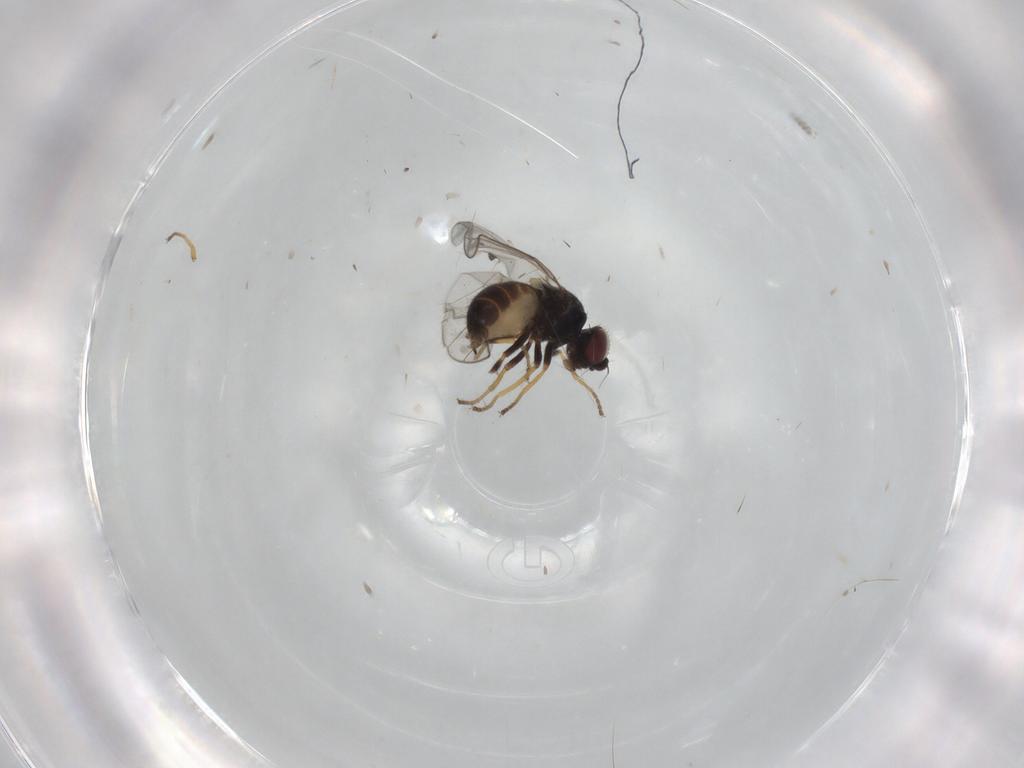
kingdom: Animalia
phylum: Arthropoda
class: Insecta
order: Diptera
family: Chloropidae
